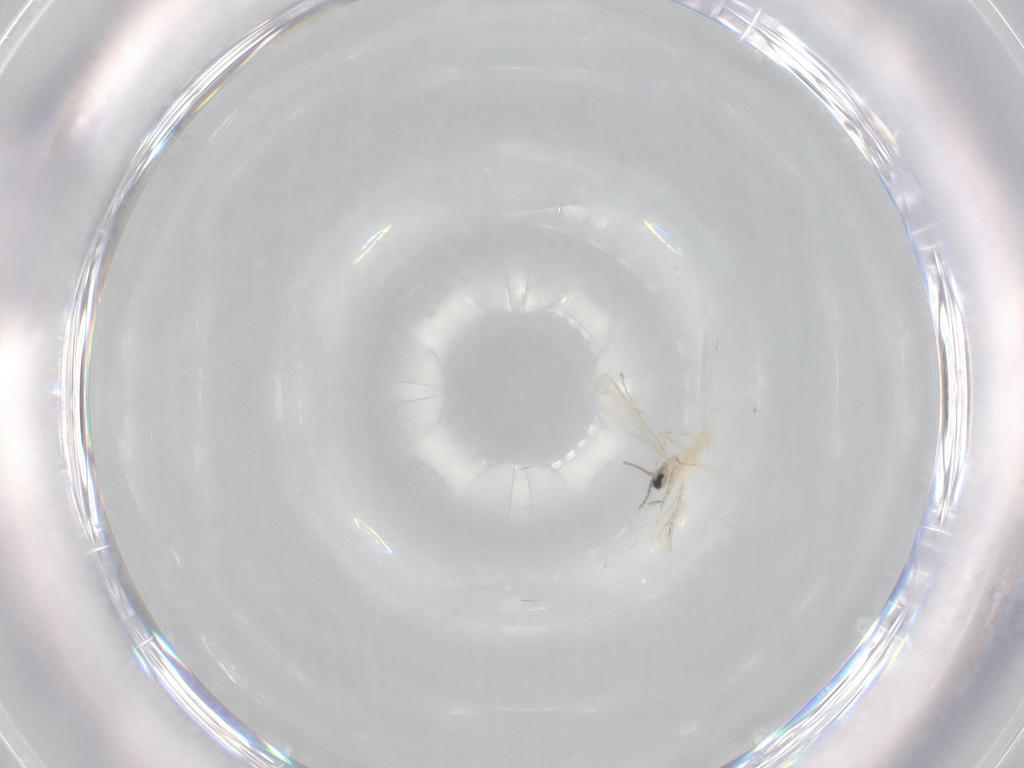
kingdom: Animalia
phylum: Arthropoda
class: Insecta
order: Diptera
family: Cecidomyiidae
